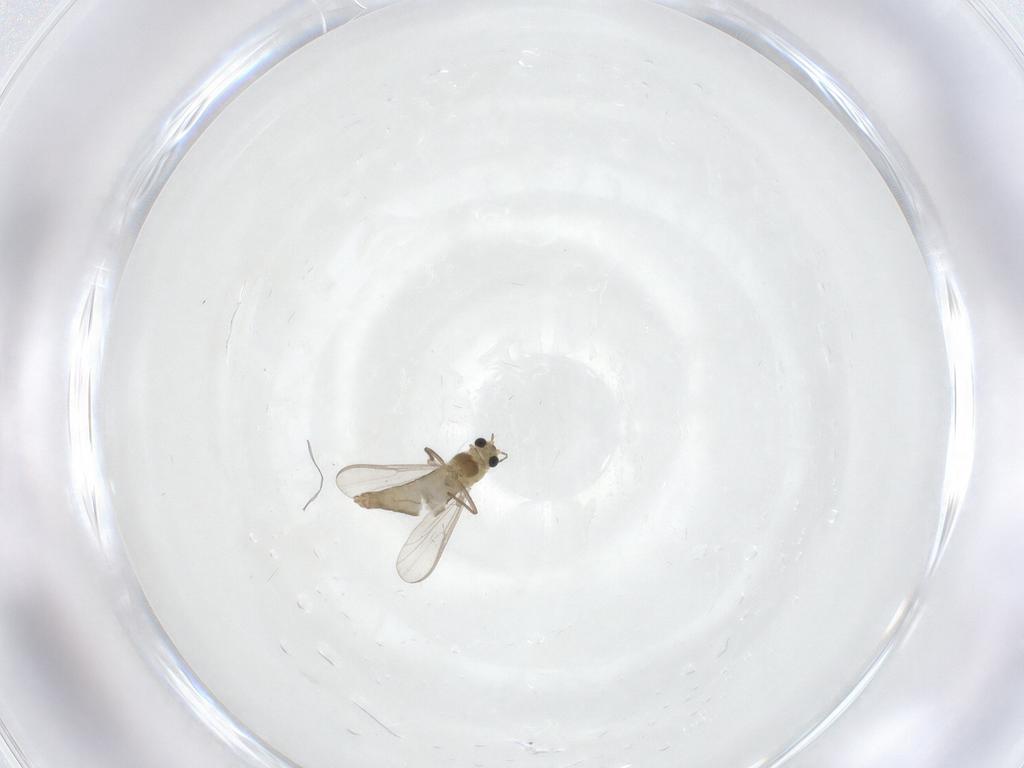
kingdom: Animalia
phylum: Arthropoda
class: Insecta
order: Diptera
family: Chironomidae
